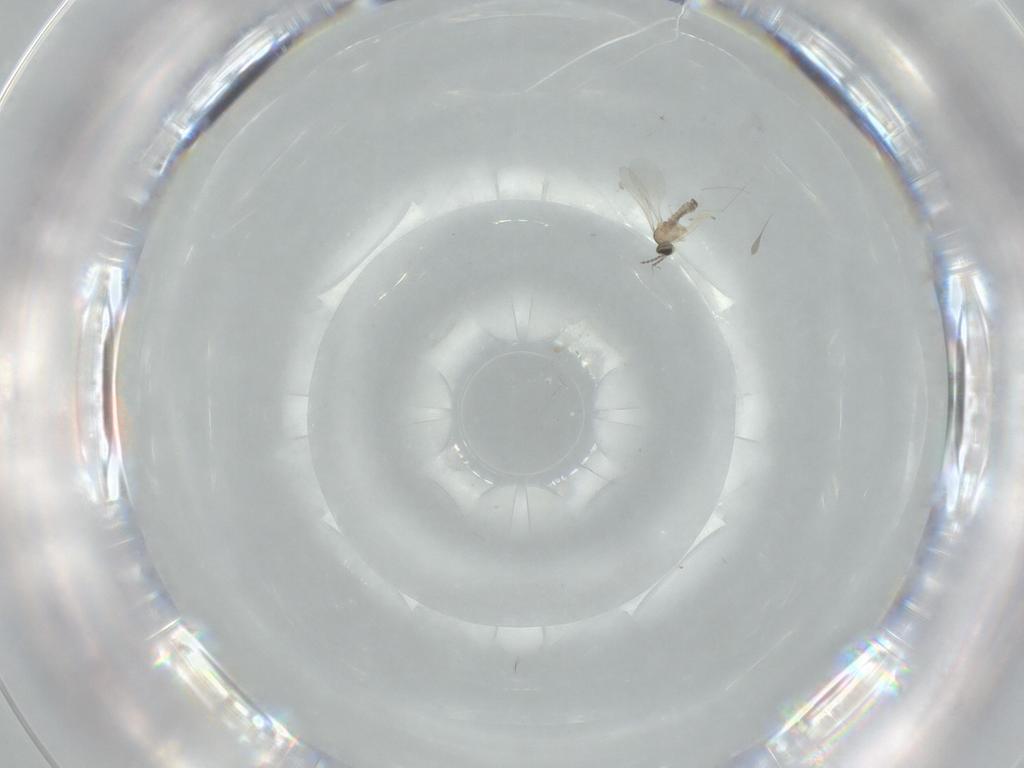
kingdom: Animalia
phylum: Arthropoda
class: Insecta
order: Diptera
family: Cecidomyiidae
